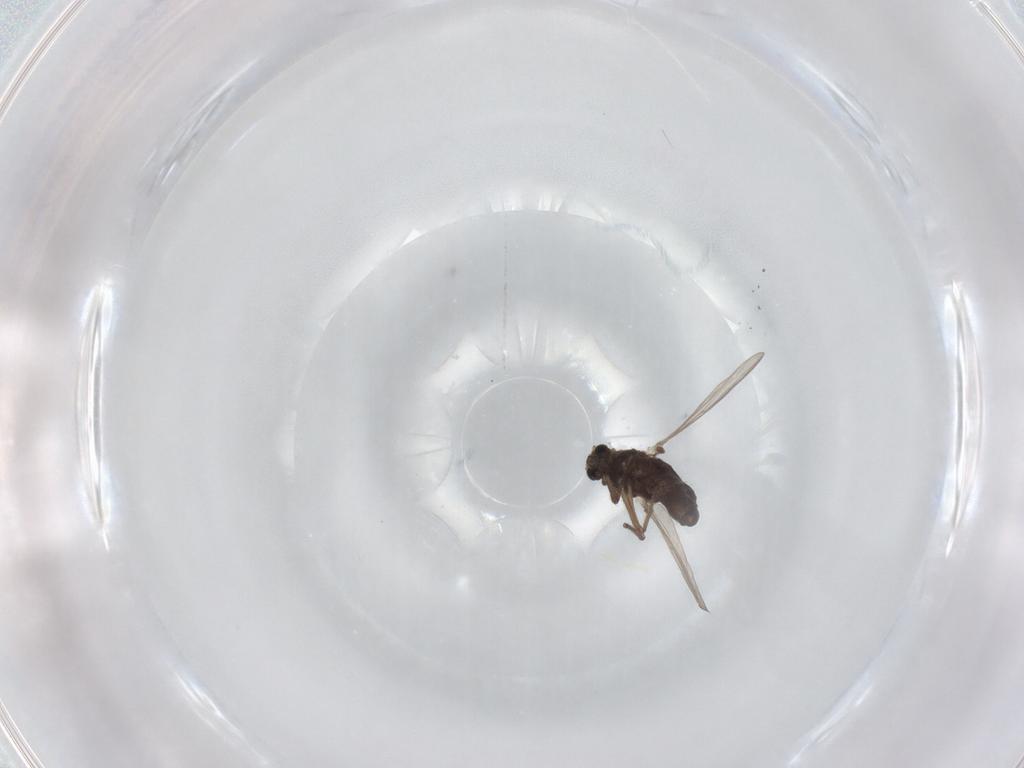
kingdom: Animalia
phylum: Arthropoda
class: Insecta
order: Diptera
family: Chironomidae
